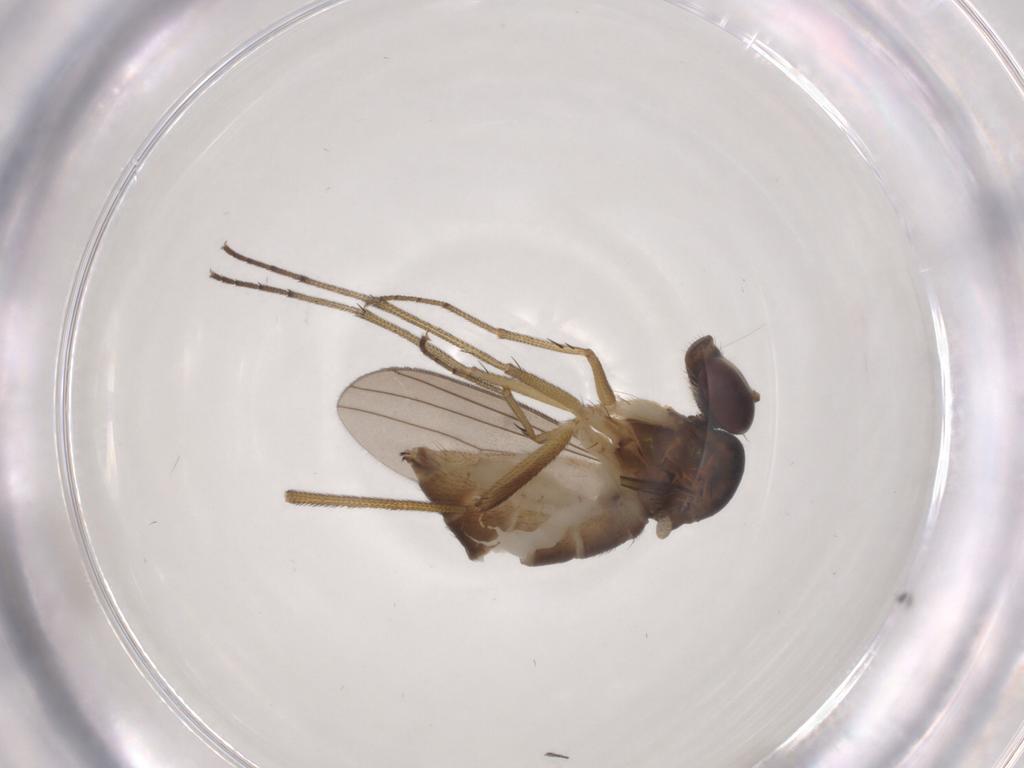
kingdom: Animalia
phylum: Arthropoda
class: Insecta
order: Diptera
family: Dolichopodidae
